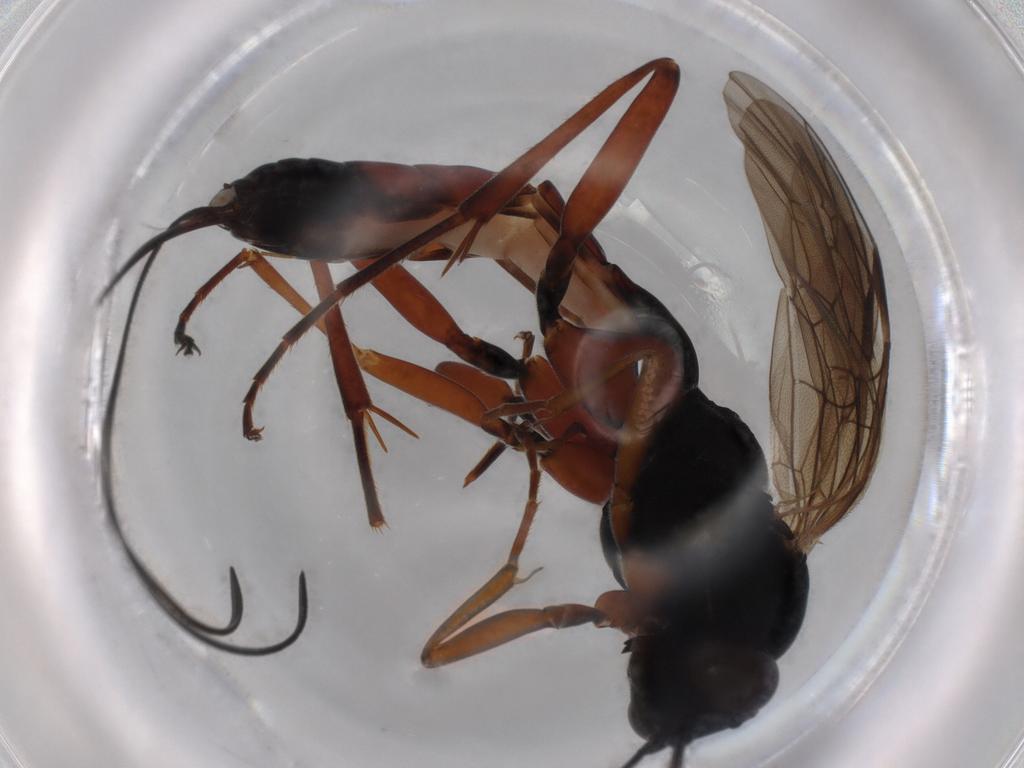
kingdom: Animalia
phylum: Arthropoda
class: Insecta
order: Hymenoptera
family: Ichneumonidae
